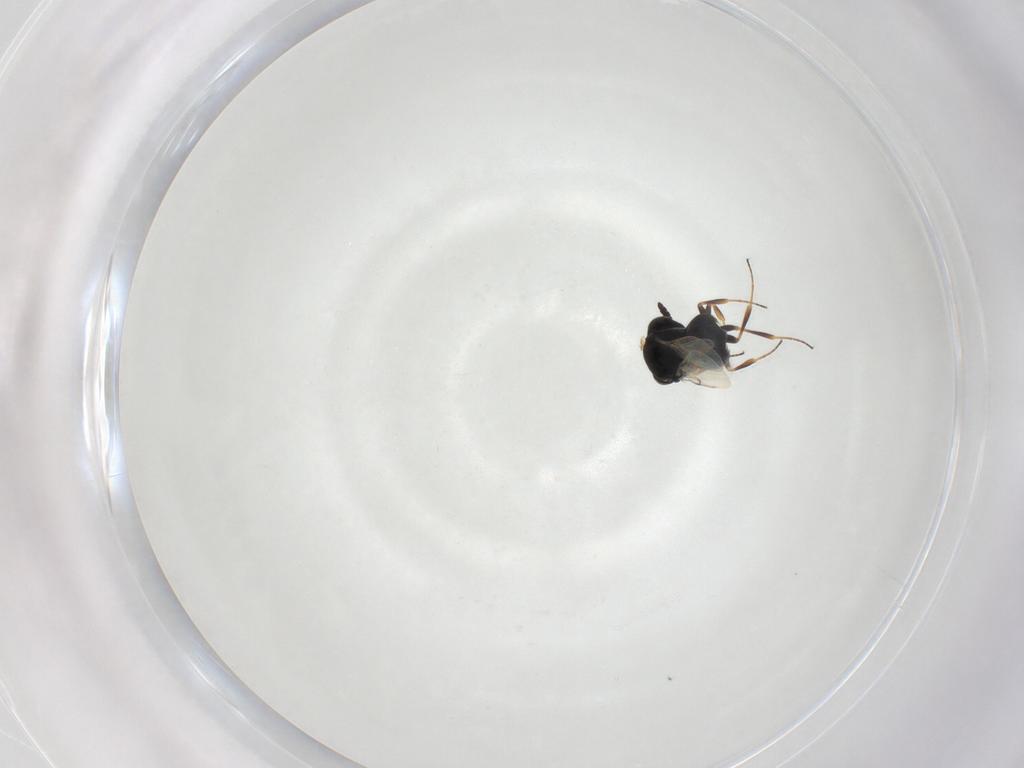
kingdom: Animalia
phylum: Arthropoda
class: Insecta
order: Hymenoptera
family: Scelionidae
